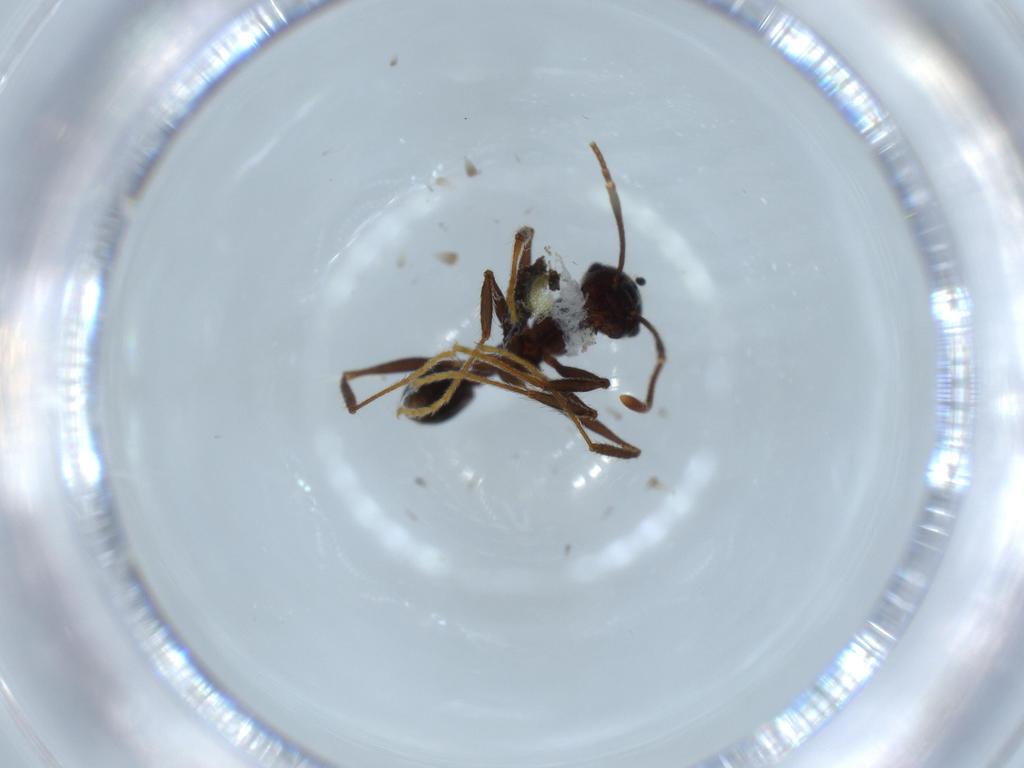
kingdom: Animalia
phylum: Arthropoda
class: Insecta
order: Hymenoptera
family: Formicidae
